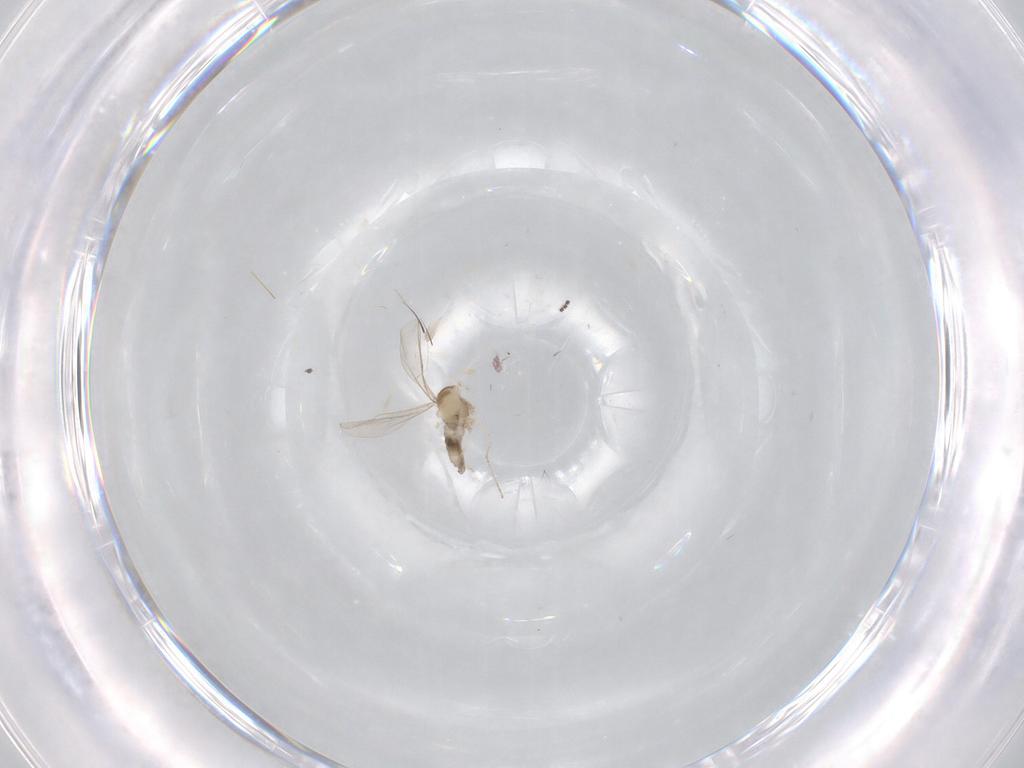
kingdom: Animalia
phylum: Arthropoda
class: Insecta
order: Diptera
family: Cecidomyiidae
